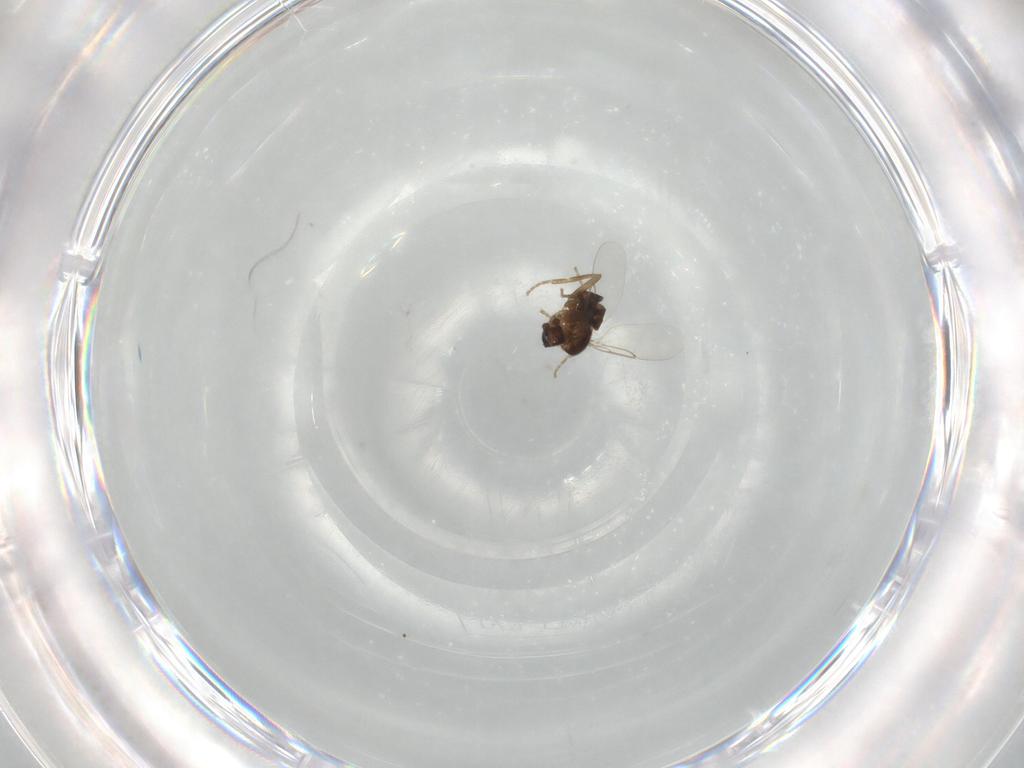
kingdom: Animalia
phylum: Arthropoda
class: Insecta
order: Diptera
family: Phoridae
